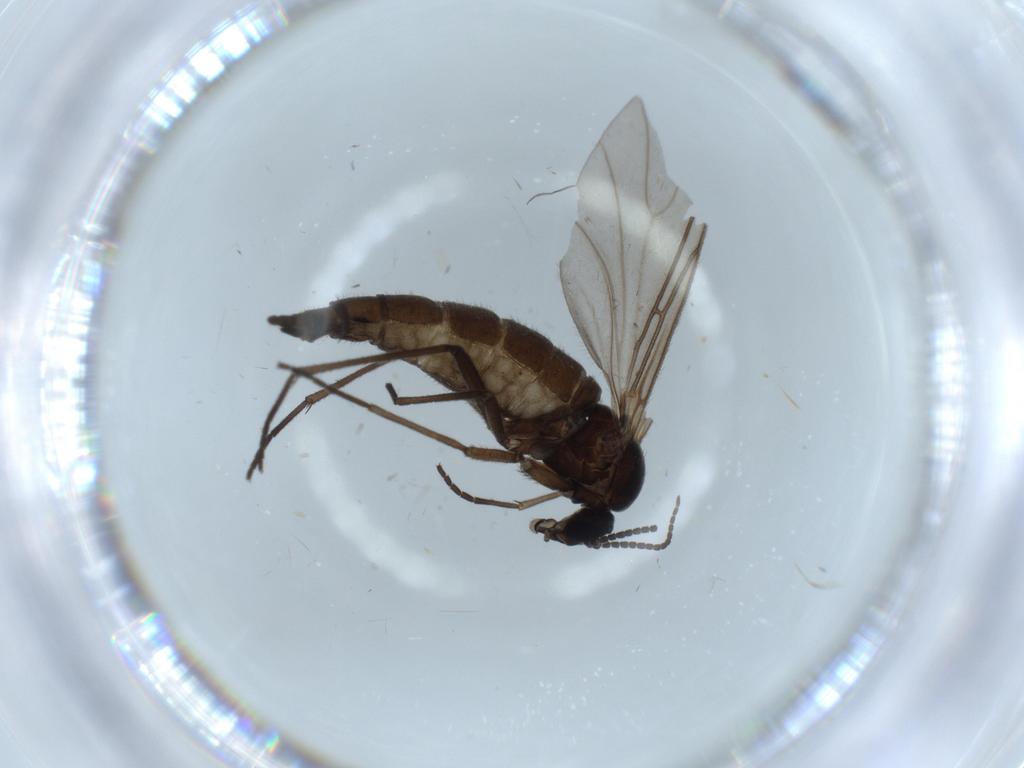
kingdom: Animalia
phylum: Arthropoda
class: Insecta
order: Diptera
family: Sciaridae
